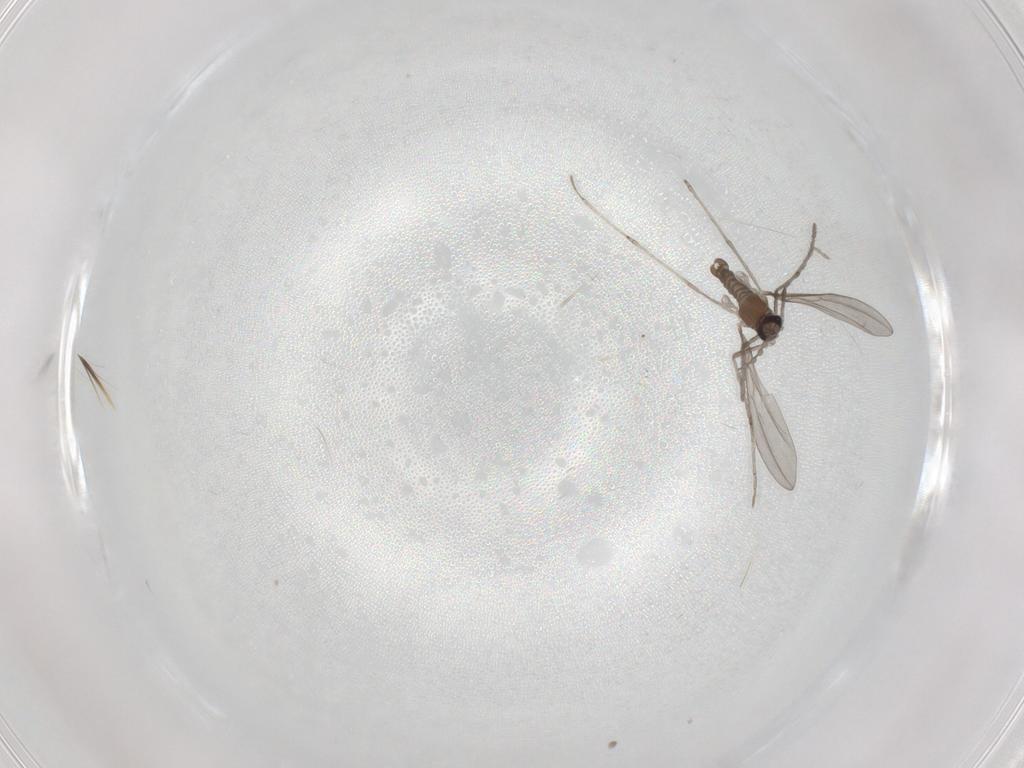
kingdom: Animalia
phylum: Arthropoda
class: Insecta
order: Diptera
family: Cecidomyiidae
